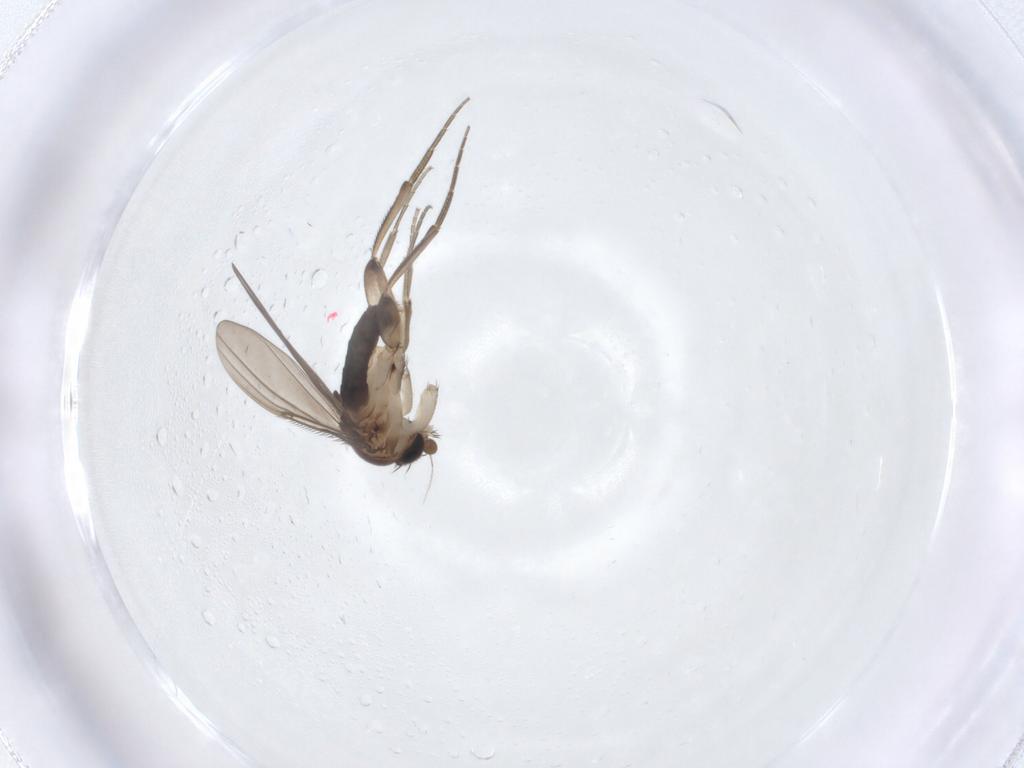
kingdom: Animalia
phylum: Arthropoda
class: Insecta
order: Diptera
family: Phoridae
